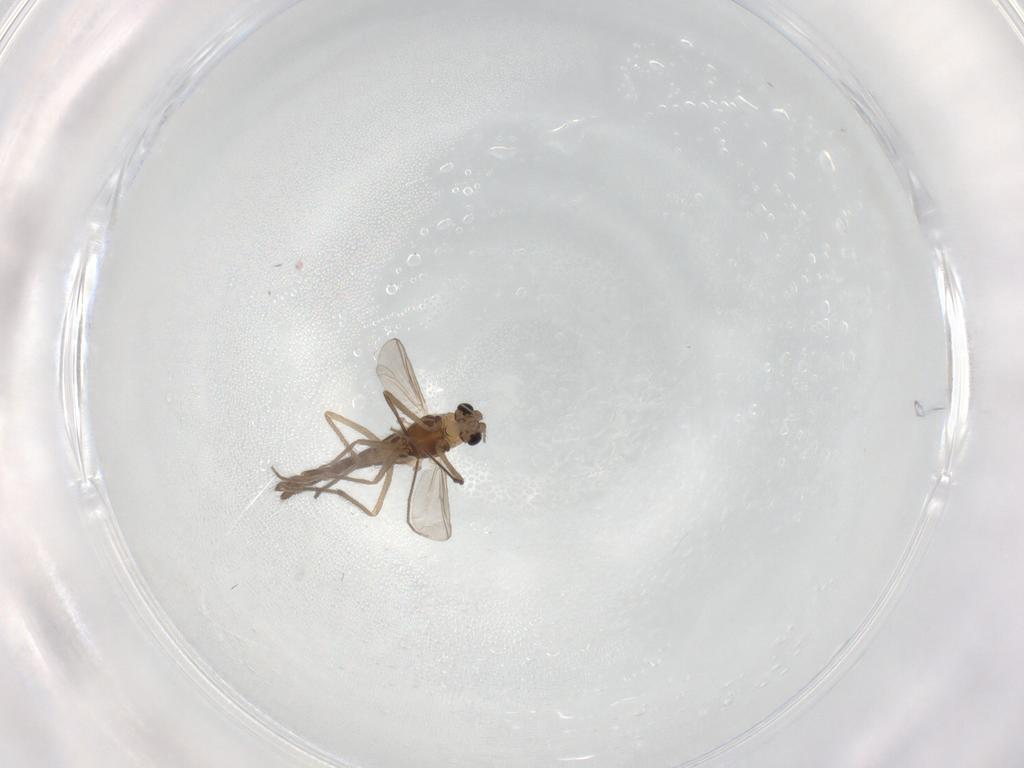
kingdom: Animalia
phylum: Arthropoda
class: Insecta
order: Diptera
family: Chironomidae
